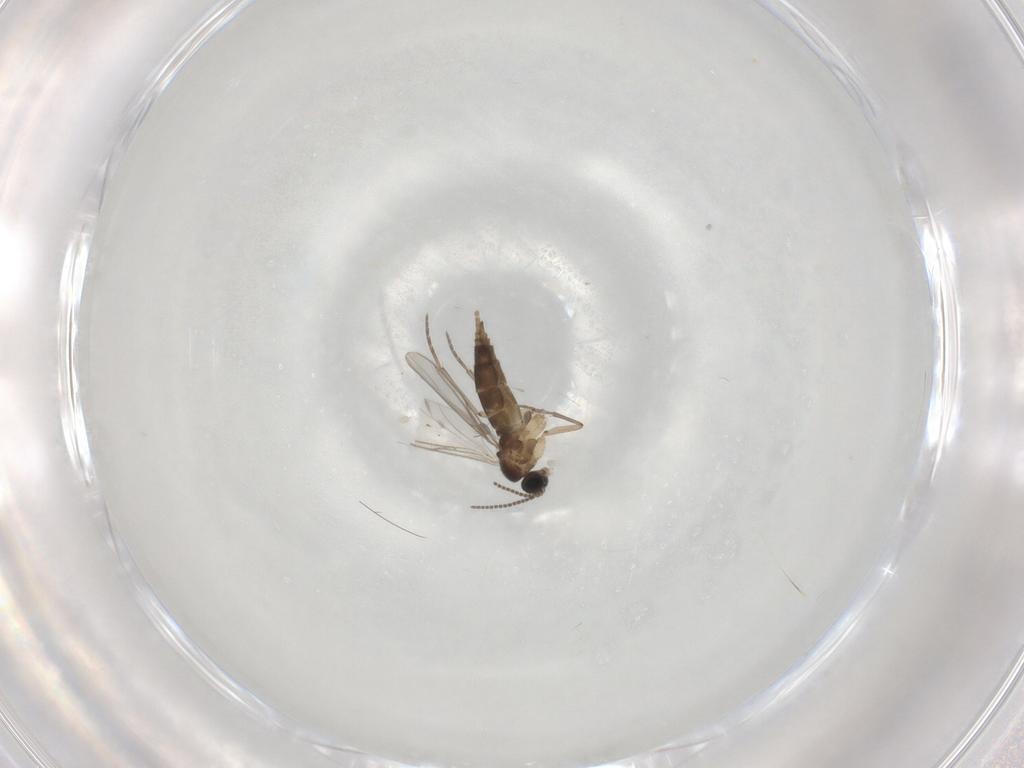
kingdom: Animalia
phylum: Arthropoda
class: Insecta
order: Diptera
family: Sciaridae
